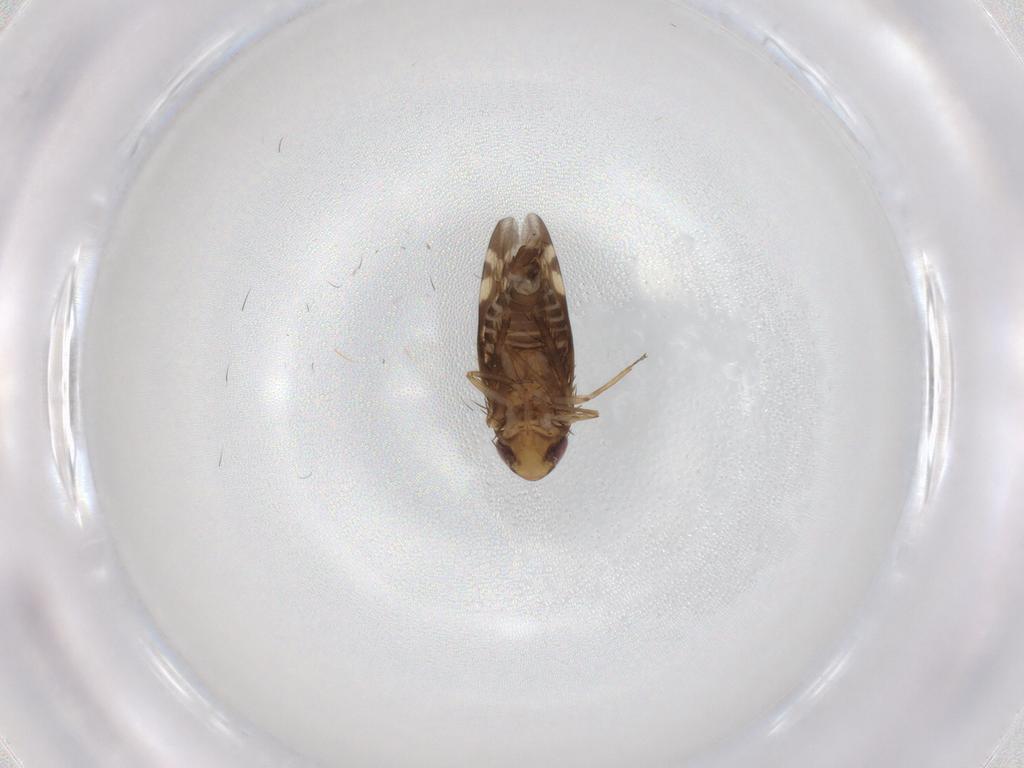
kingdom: Animalia
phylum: Arthropoda
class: Insecta
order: Hemiptera
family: Cicadellidae
